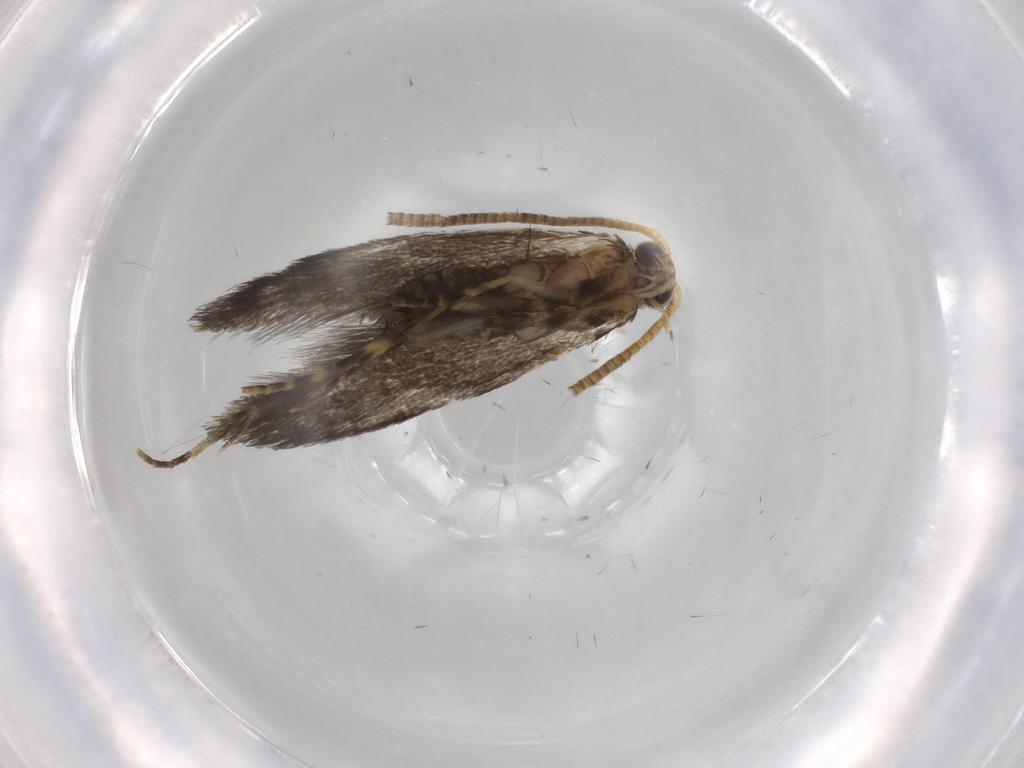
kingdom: Animalia
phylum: Arthropoda
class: Insecta
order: Lepidoptera
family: Tineidae
